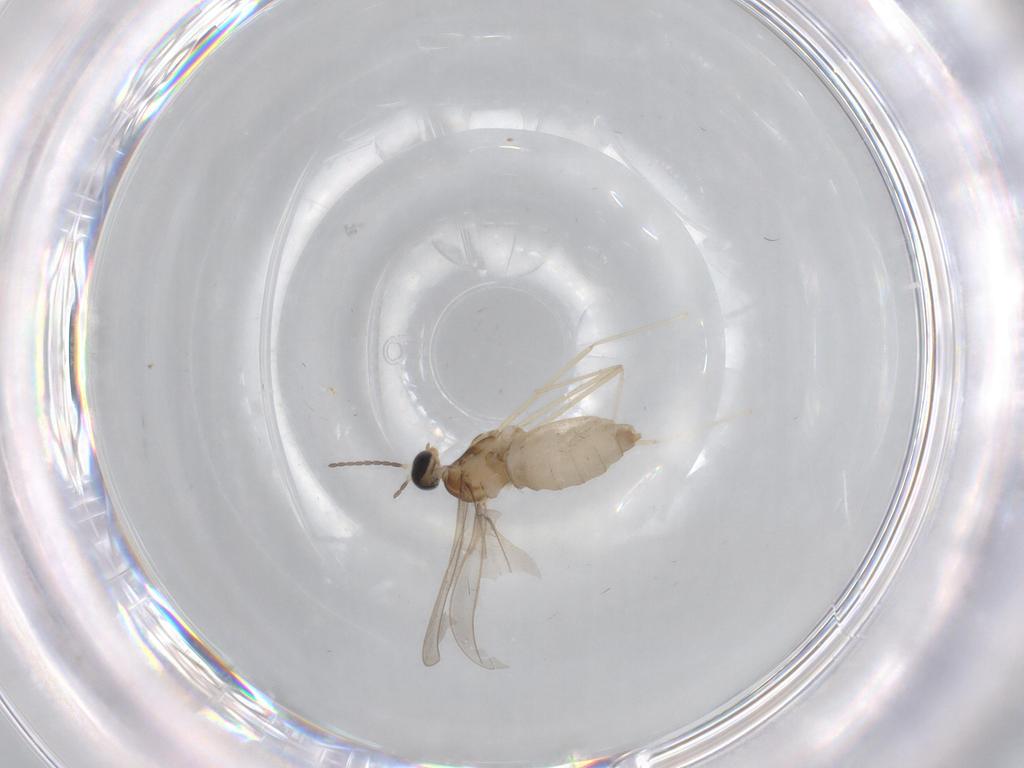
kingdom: Animalia
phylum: Arthropoda
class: Insecta
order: Diptera
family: Cecidomyiidae
